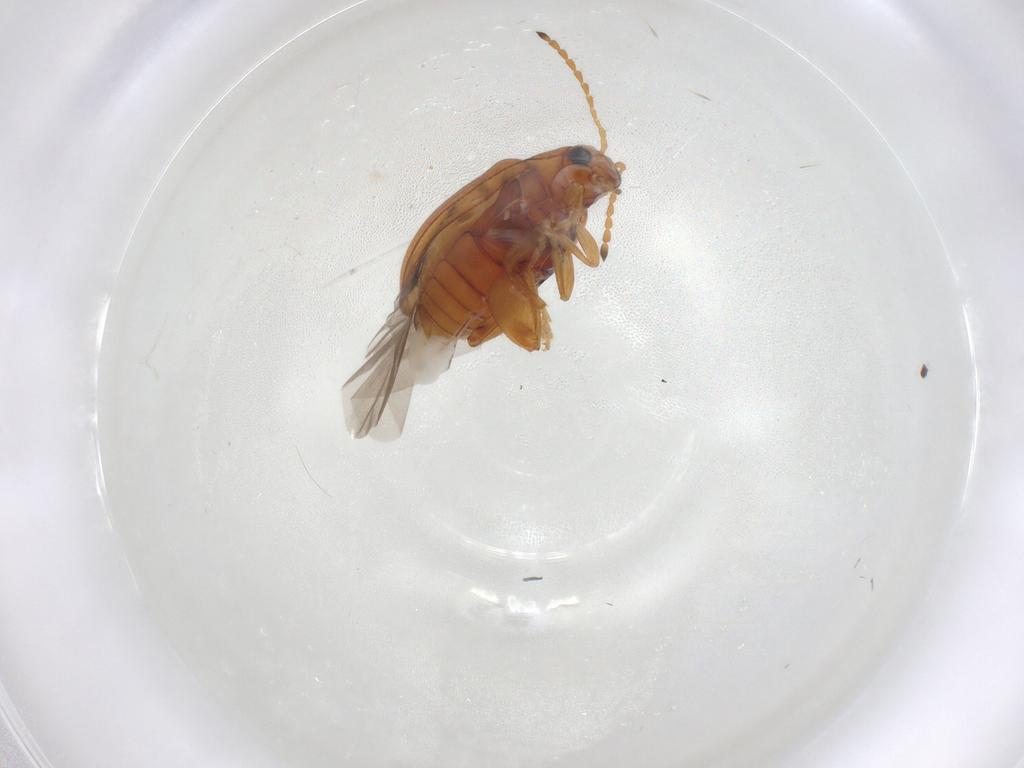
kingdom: Animalia
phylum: Arthropoda
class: Insecta
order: Coleoptera
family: Chrysomelidae
